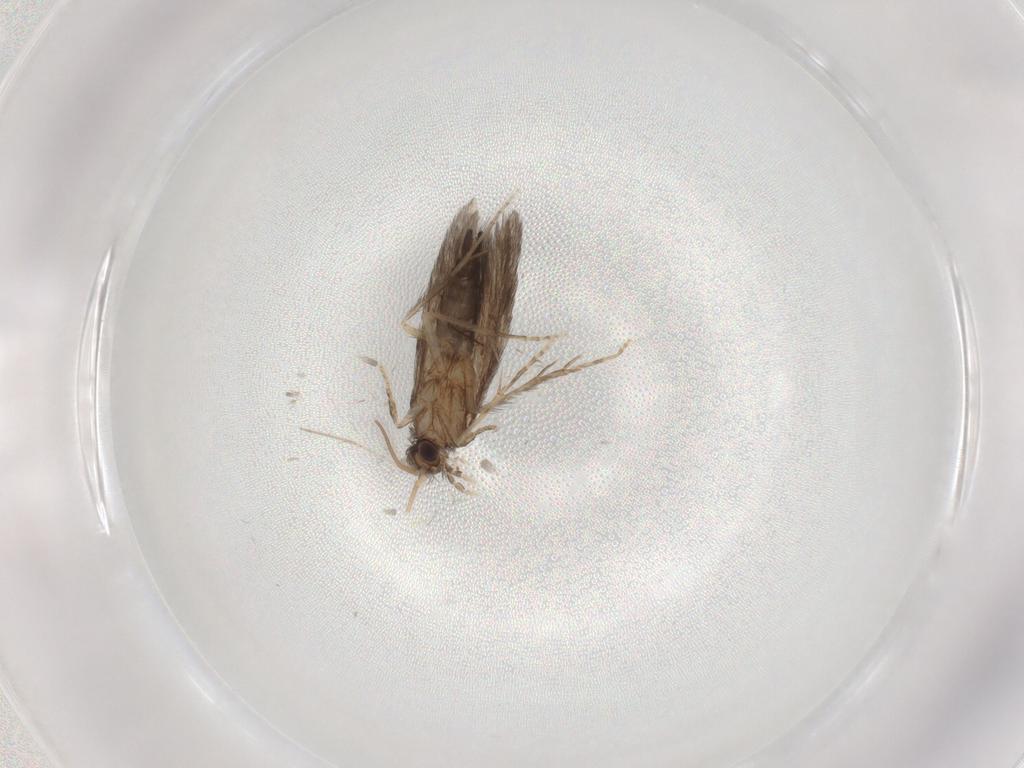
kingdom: Animalia
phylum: Arthropoda
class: Insecta
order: Trichoptera
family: Hydroptilidae
